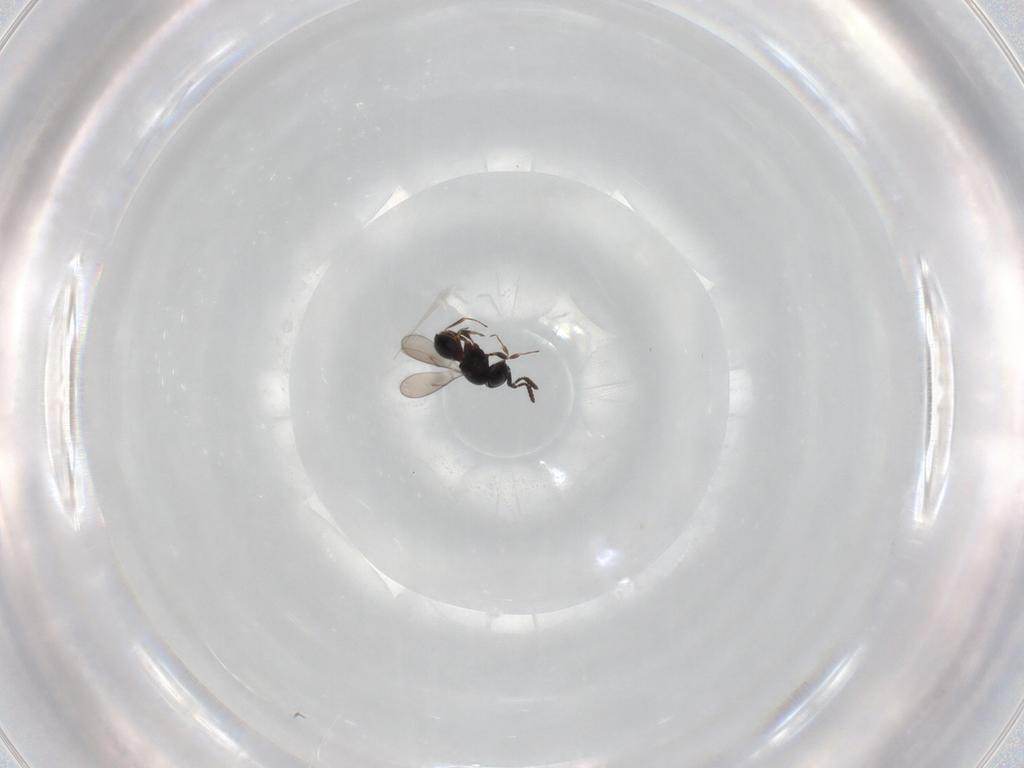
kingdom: Animalia
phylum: Arthropoda
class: Insecta
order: Hymenoptera
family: Scelionidae
